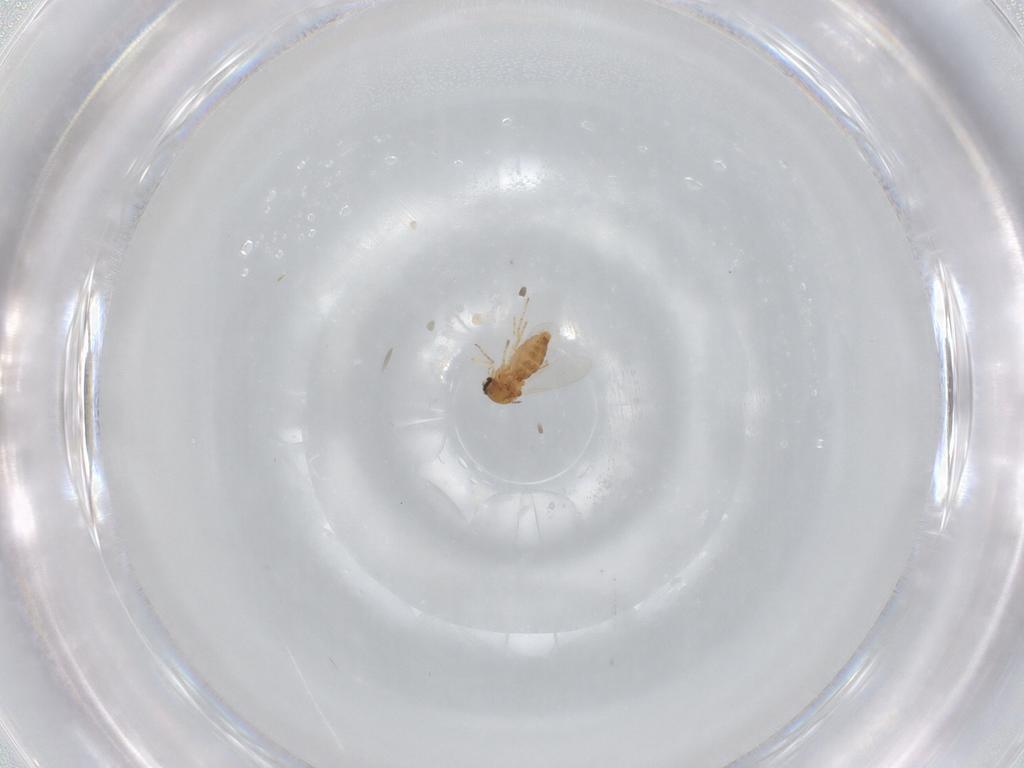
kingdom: Animalia
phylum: Arthropoda
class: Insecta
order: Diptera
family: Ceratopogonidae
